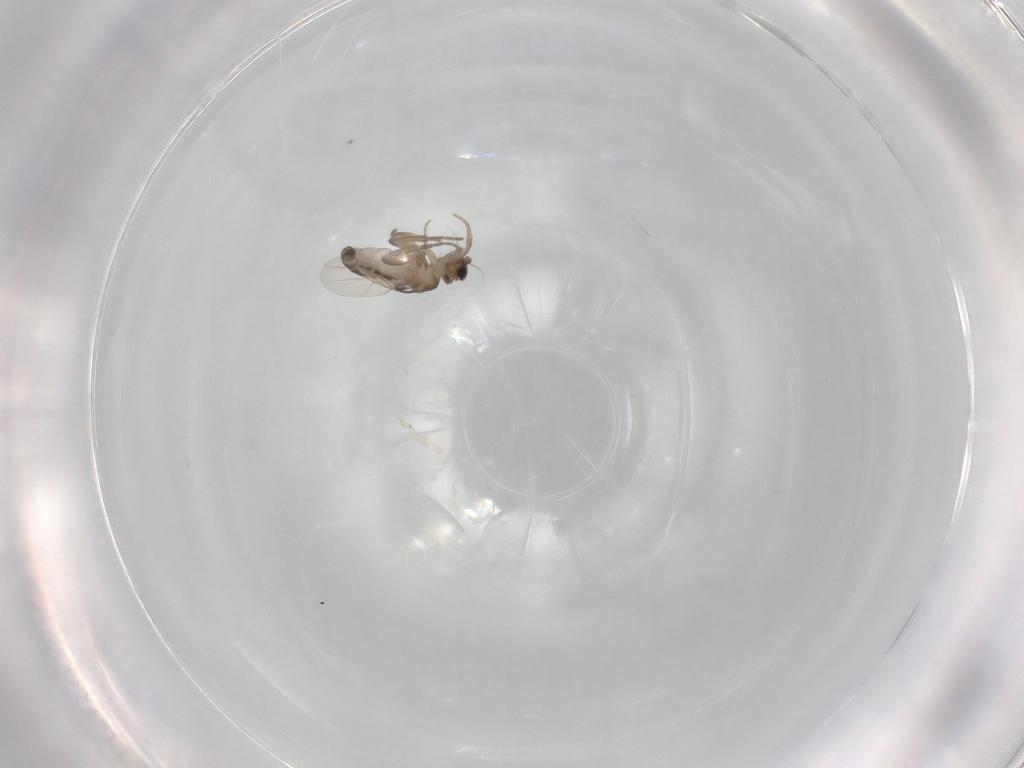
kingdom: Animalia
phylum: Arthropoda
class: Insecta
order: Diptera
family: Phoridae
